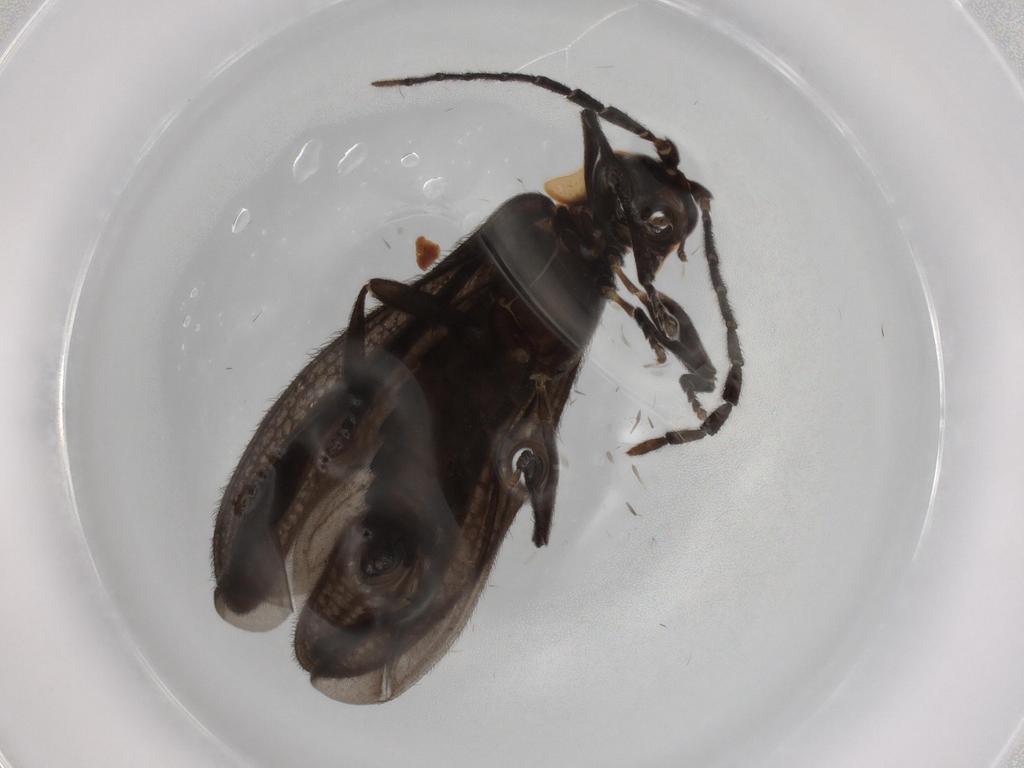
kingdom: Animalia
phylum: Arthropoda
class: Insecta
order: Coleoptera
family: Lycidae
